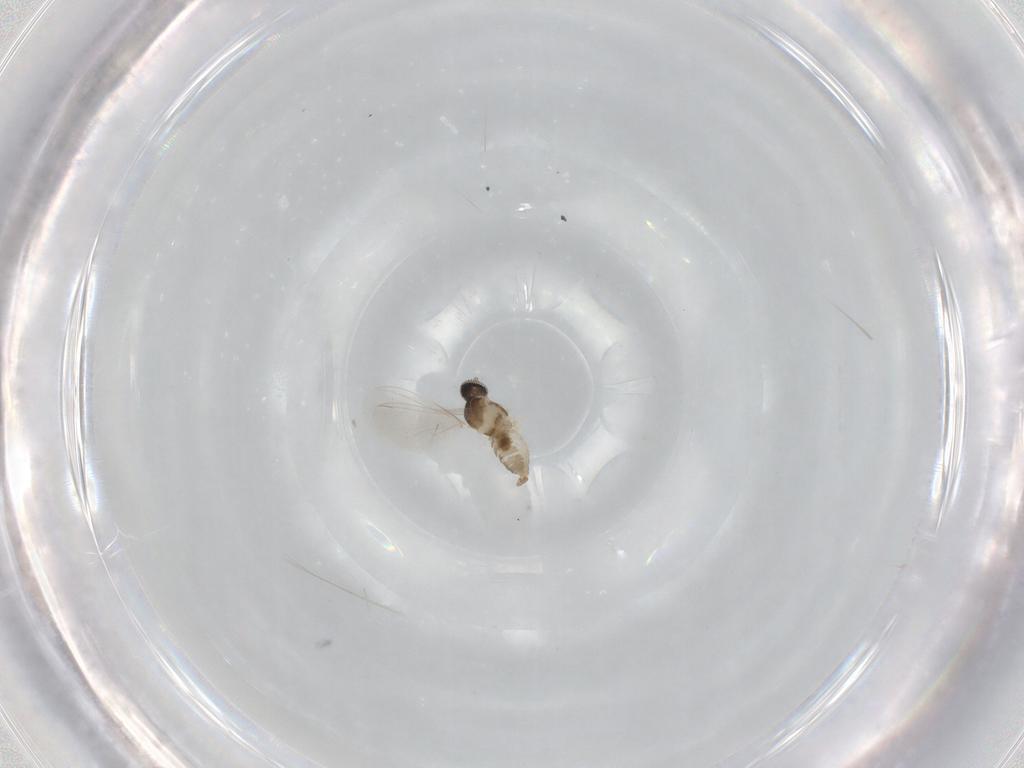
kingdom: Animalia
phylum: Arthropoda
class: Insecta
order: Diptera
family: Cecidomyiidae
